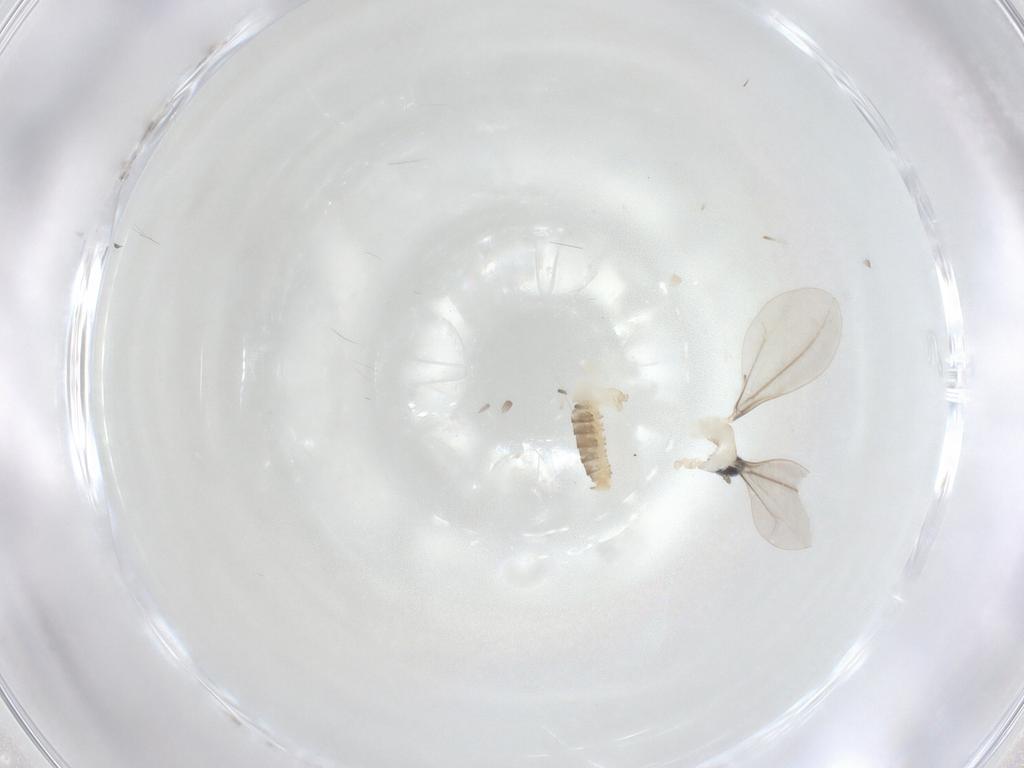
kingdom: Animalia
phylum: Arthropoda
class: Insecta
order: Diptera
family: Cecidomyiidae
